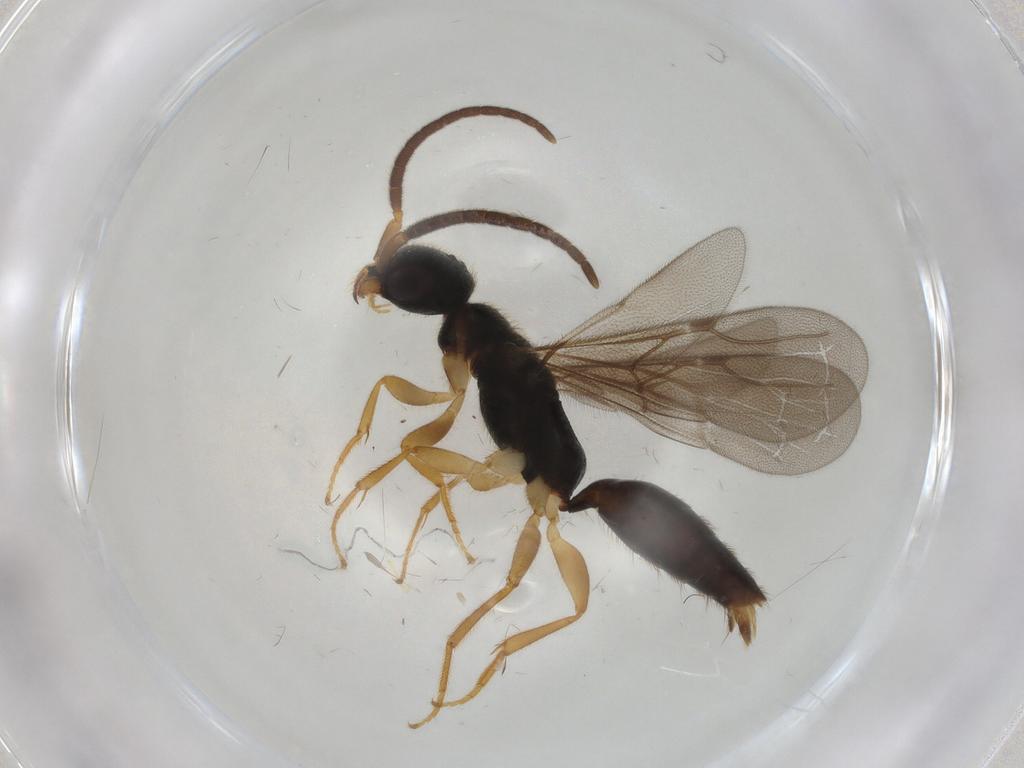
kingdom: Animalia
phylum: Arthropoda
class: Insecta
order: Hymenoptera
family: Bethylidae
